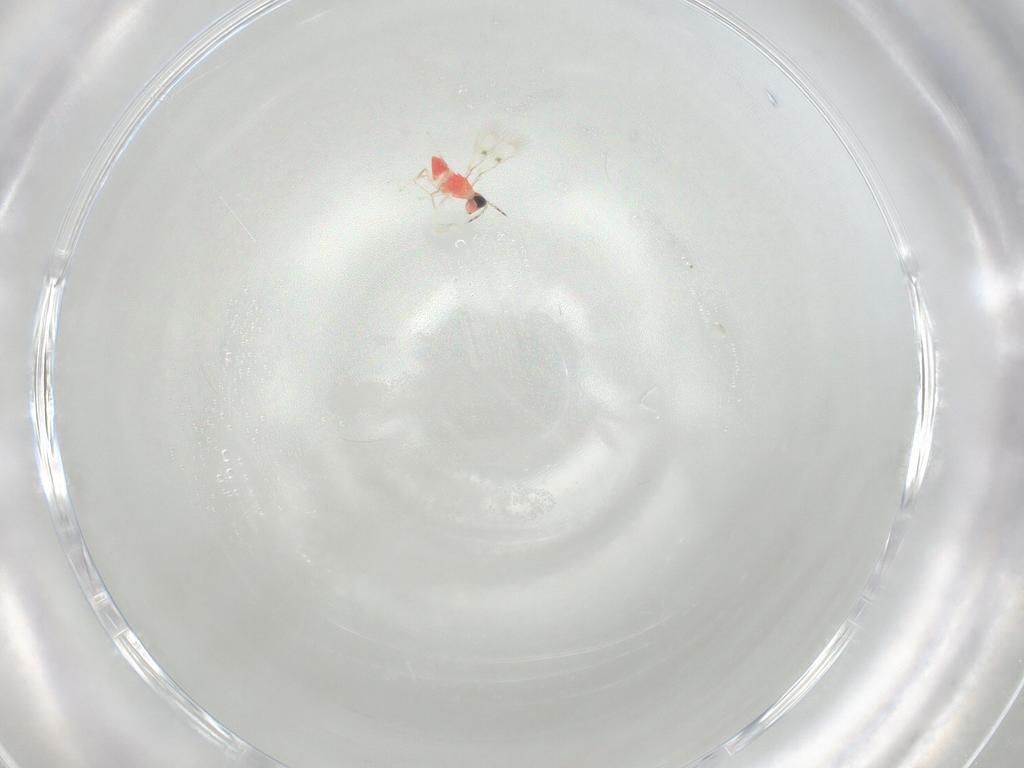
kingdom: Animalia
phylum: Arthropoda
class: Insecta
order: Hymenoptera
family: Trichogrammatidae
